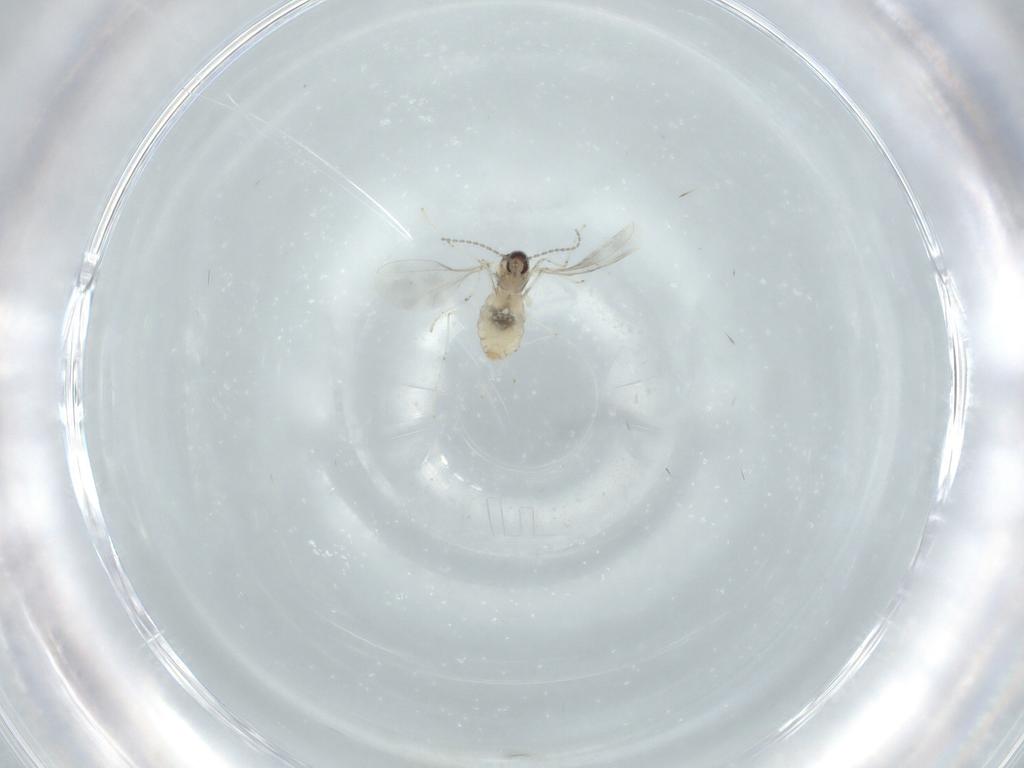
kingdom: Animalia
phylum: Arthropoda
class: Insecta
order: Diptera
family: Cecidomyiidae
